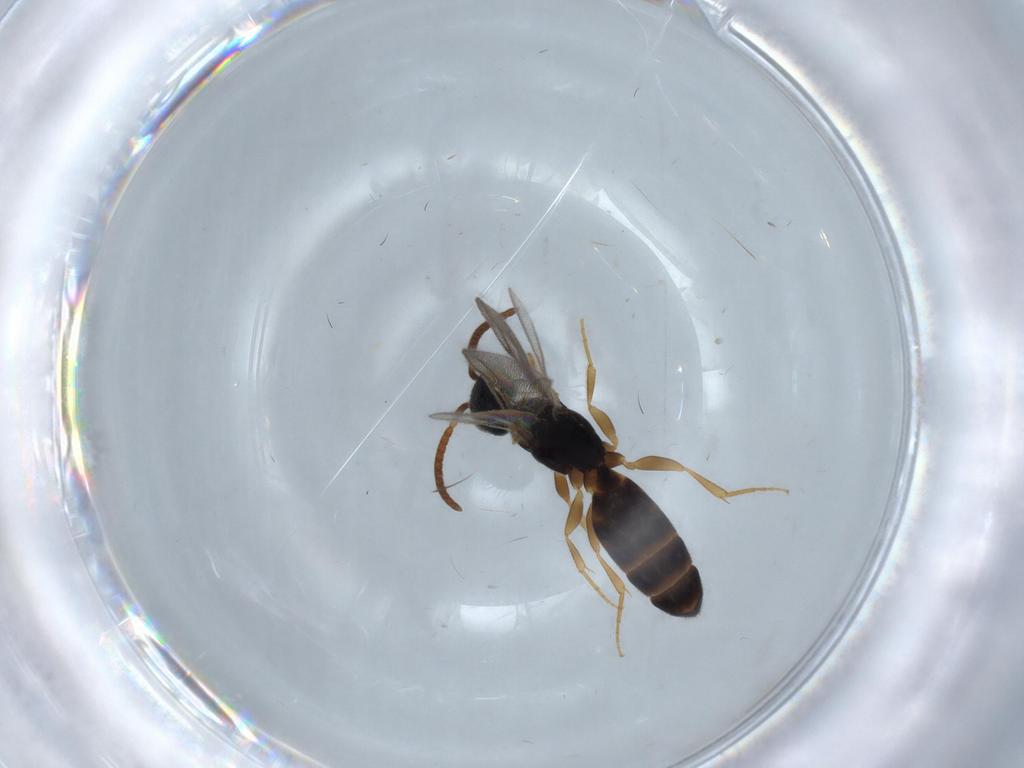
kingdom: Animalia
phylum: Arthropoda
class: Insecta
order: Hymenoptera
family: Bethylidae
